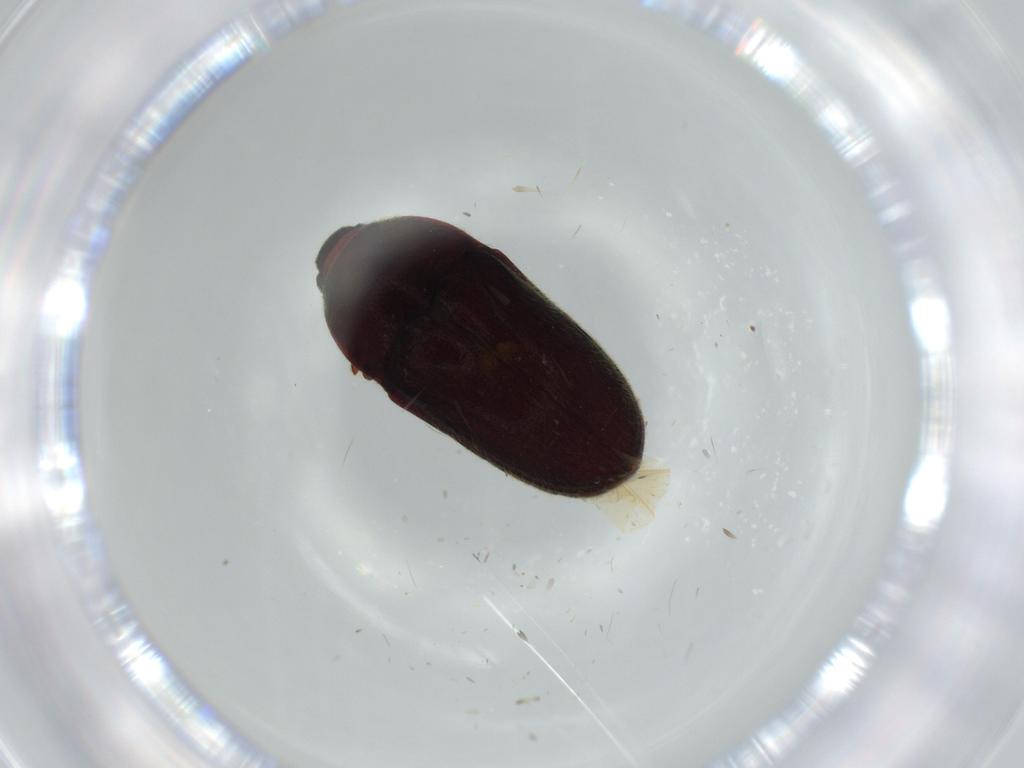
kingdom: Animalia
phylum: Arthropoda
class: Insecta
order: Coleoptera
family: Throscidae
